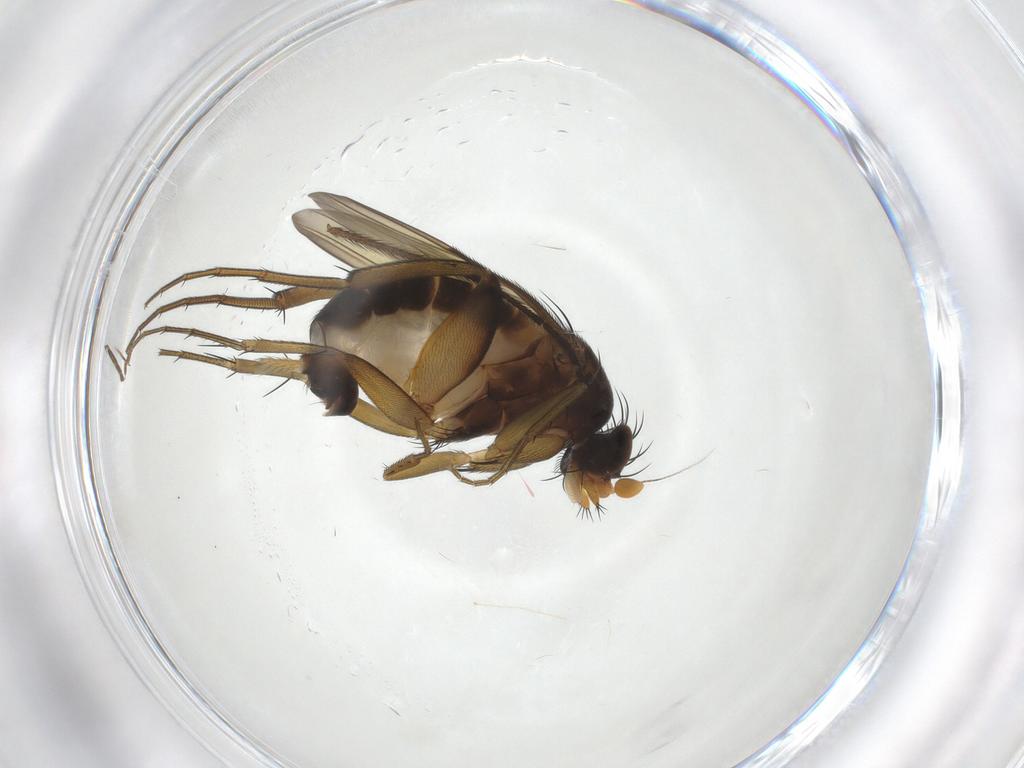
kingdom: Animalia
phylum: Arthropoda
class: Insecta
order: Diptera
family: Phoridae
